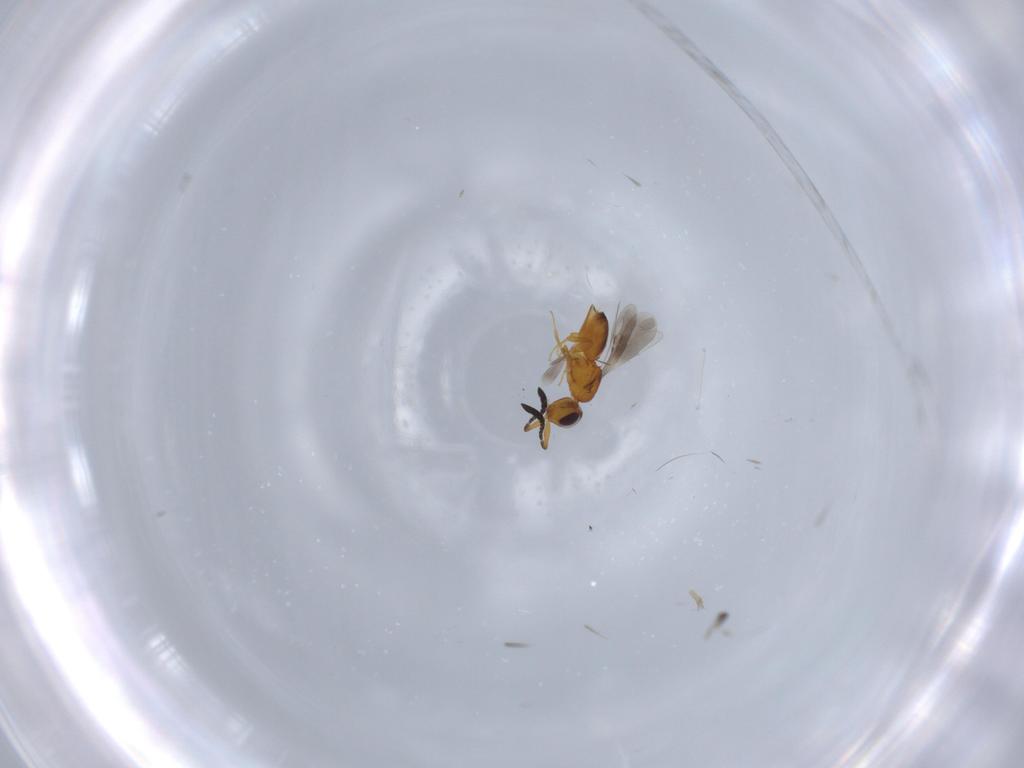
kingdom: Animalia
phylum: Arthropoda
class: Insecta
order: Hymenoptera
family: Ceraphronidae
